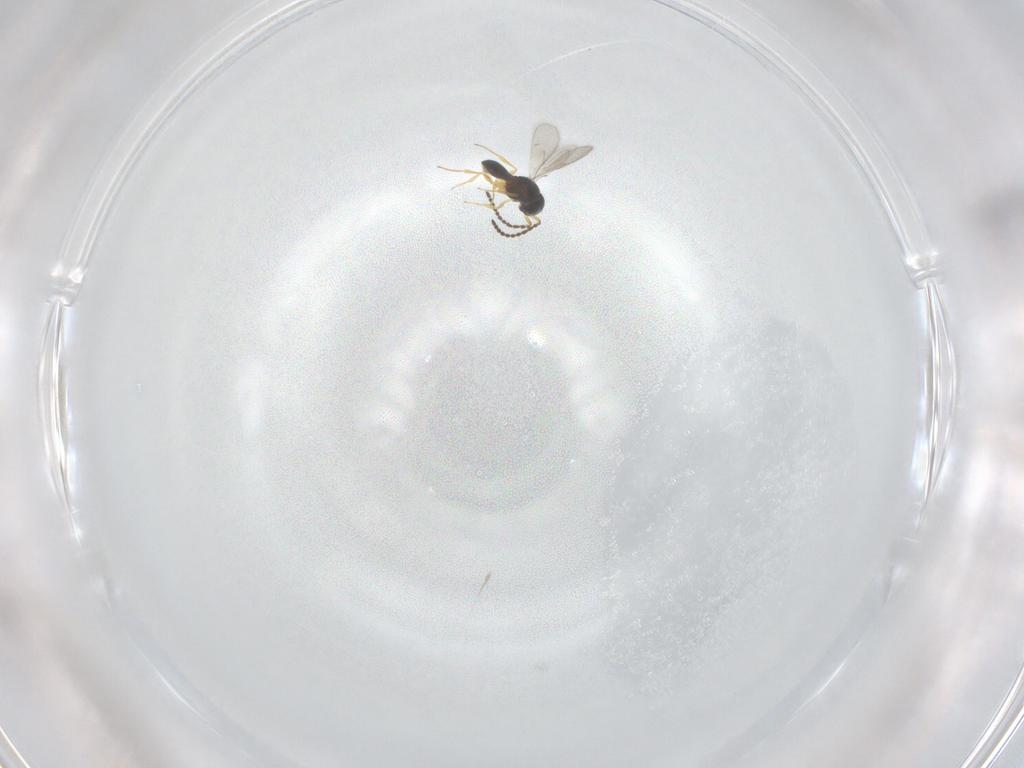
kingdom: Animalia
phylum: Arthropoda
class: Insecta
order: Hymenoptera
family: Scelionidae
